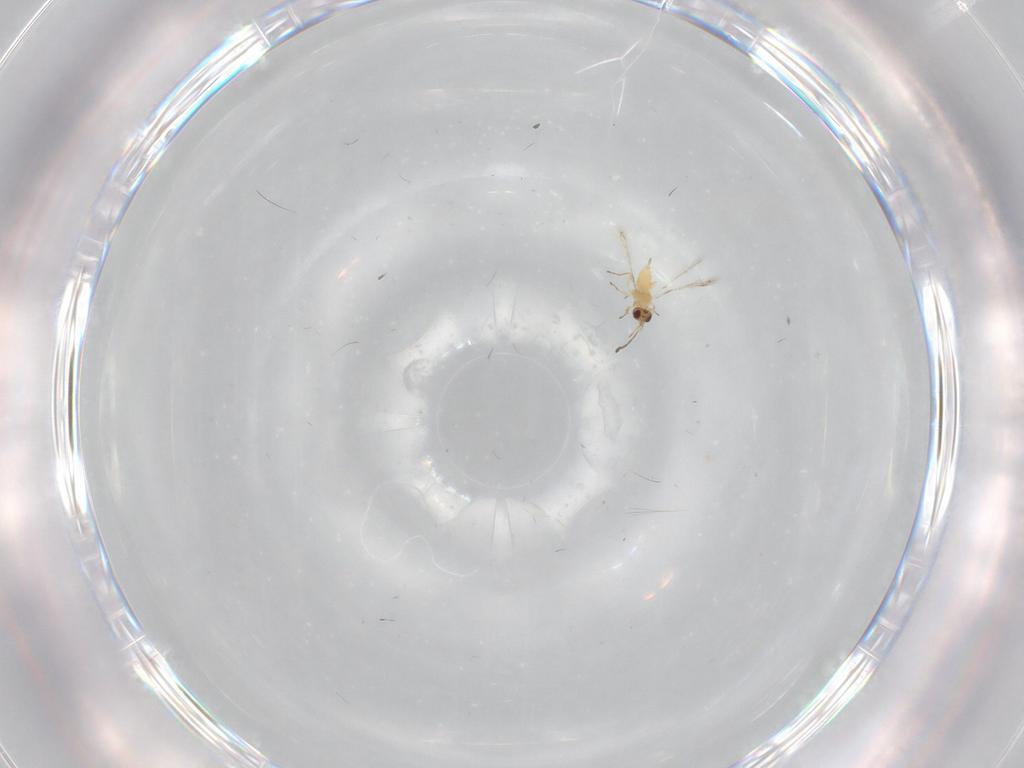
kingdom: Animalia
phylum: Arthropoda
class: Insecta
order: Hymenoptera
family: Mymaridae
